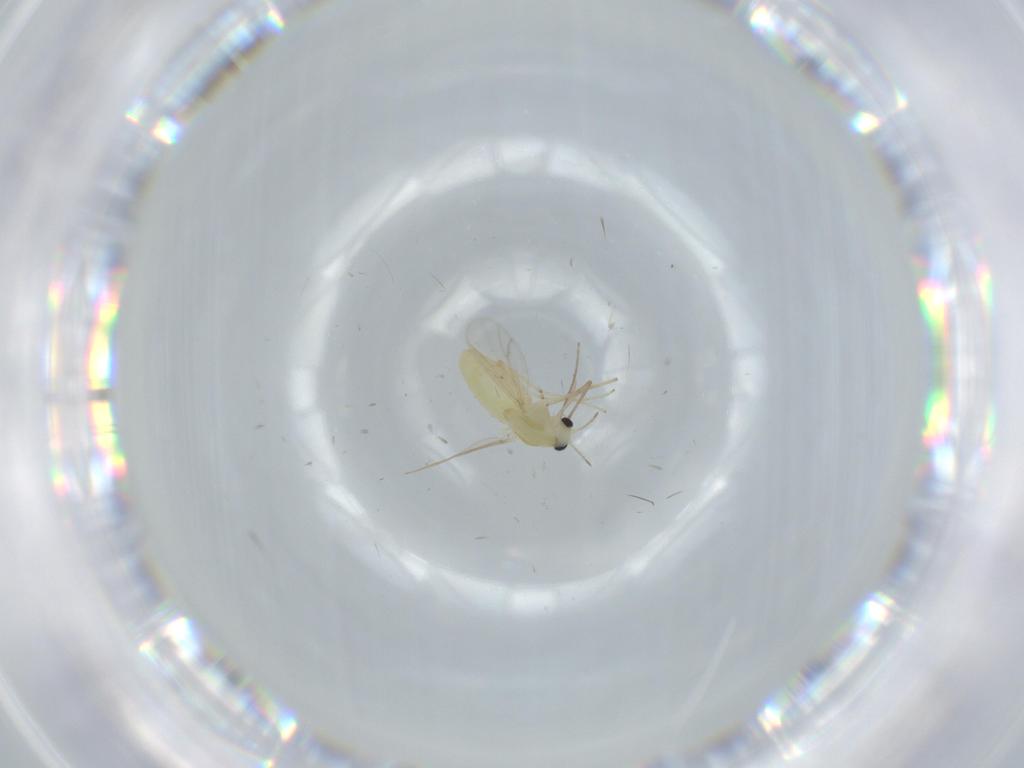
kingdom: Animalia
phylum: Arthropoda
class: Insecta
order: Diptera
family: Chironomidae
